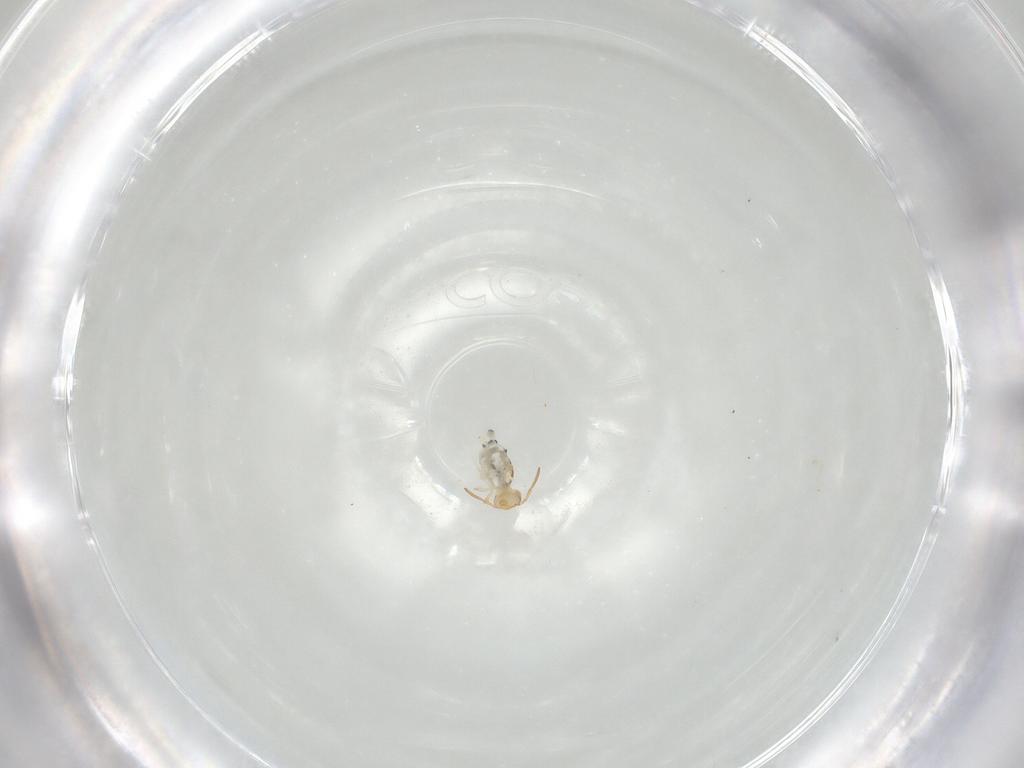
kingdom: Animalia
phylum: Arthropoda
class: Collembola
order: Symphypleona
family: Bourletiellidae
